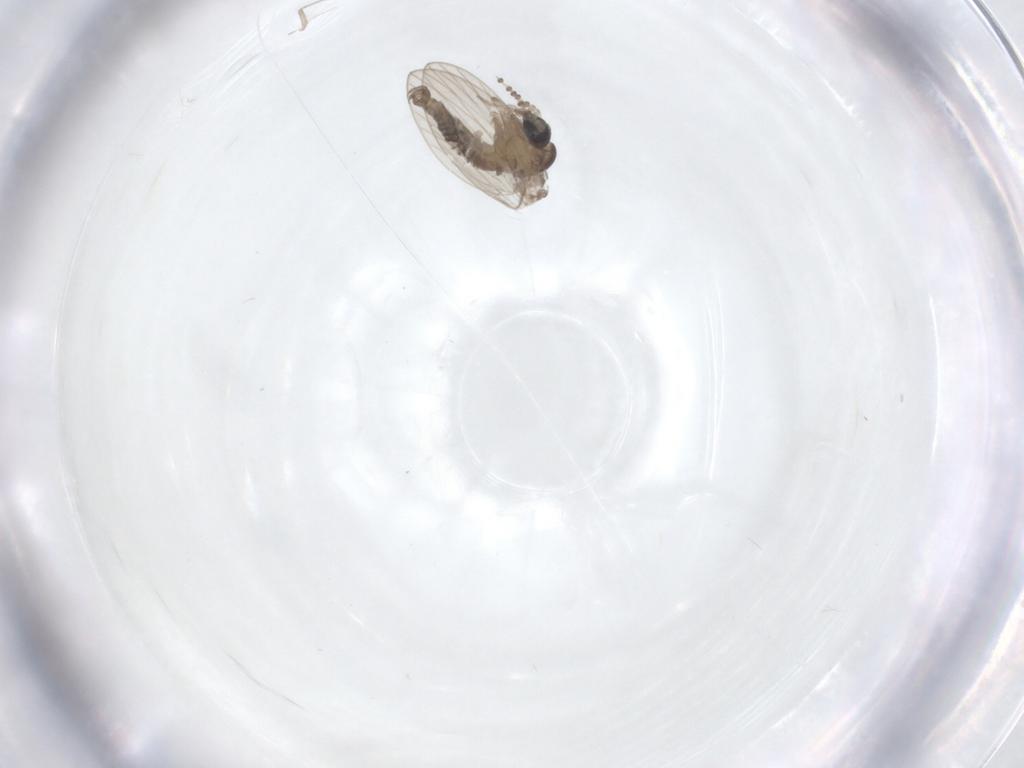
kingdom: Animalia
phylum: Arthropoda
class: Insecta
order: Diptera
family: Psychodidae
